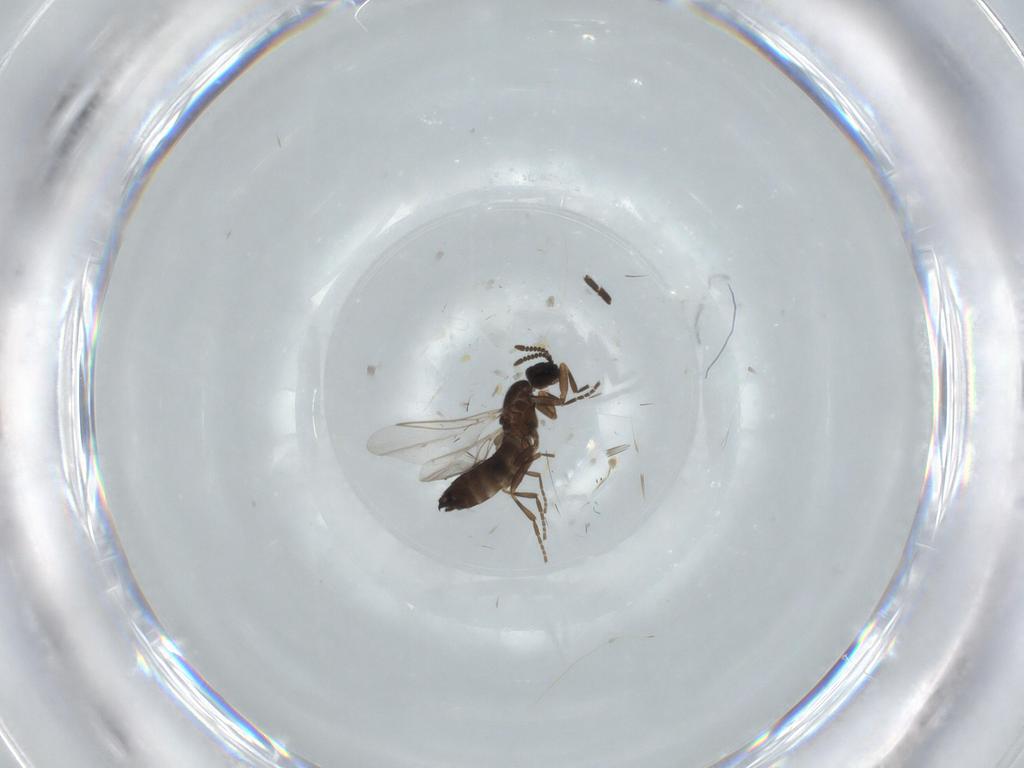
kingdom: Animalia
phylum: Arthropoda
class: Insecta
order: Diptera
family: Scatopsidae
